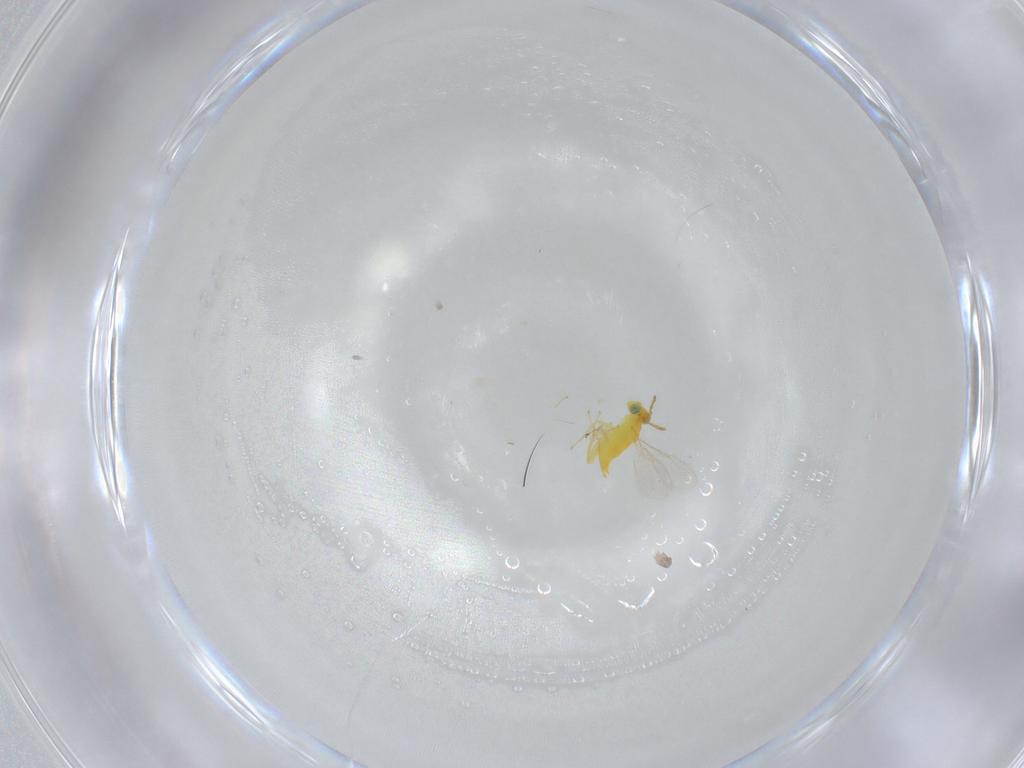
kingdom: Animalia
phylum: Arthropoda
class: Insecta
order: Hymenoptera
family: Aphelinidae
